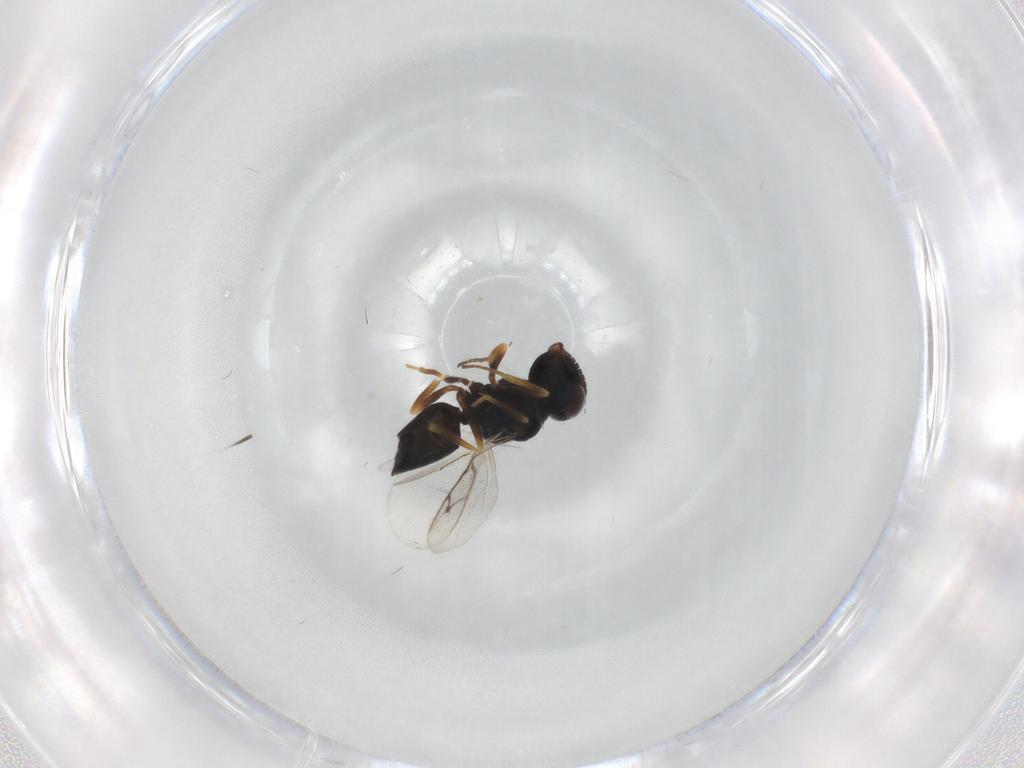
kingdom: Animalia
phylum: Arthropoda
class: Insecta
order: Hymenoptera
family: Pteromalidae
